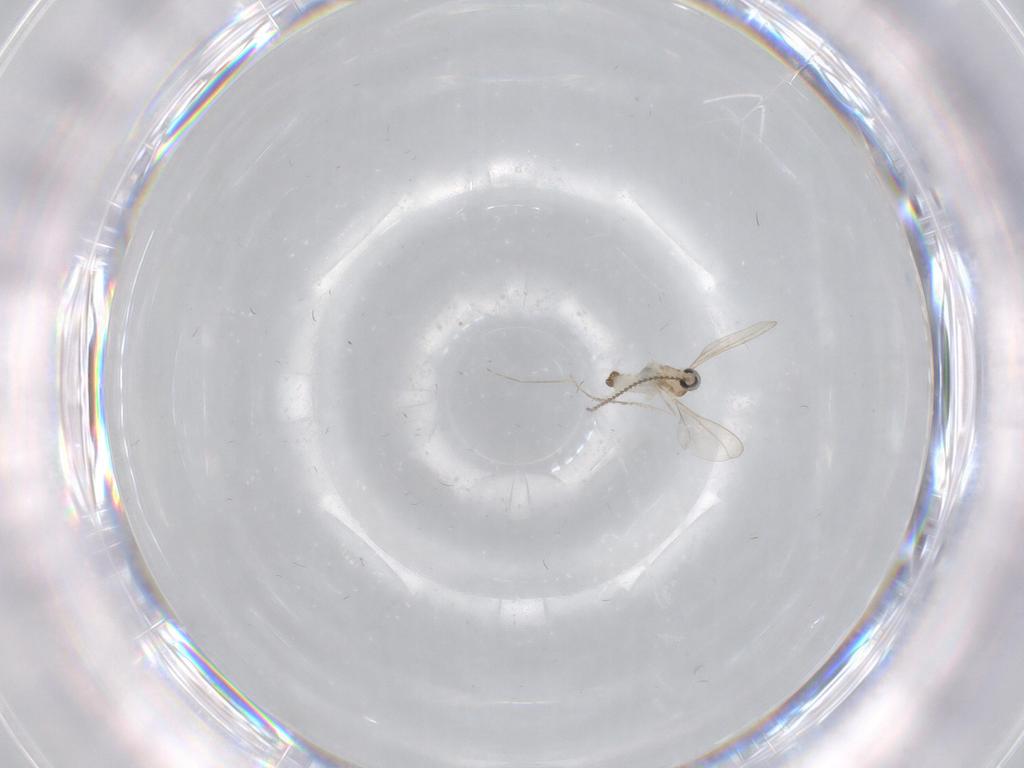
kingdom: Animalia
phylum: Arthropoda
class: Insecta
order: Diptera
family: Cecidomyiidae
